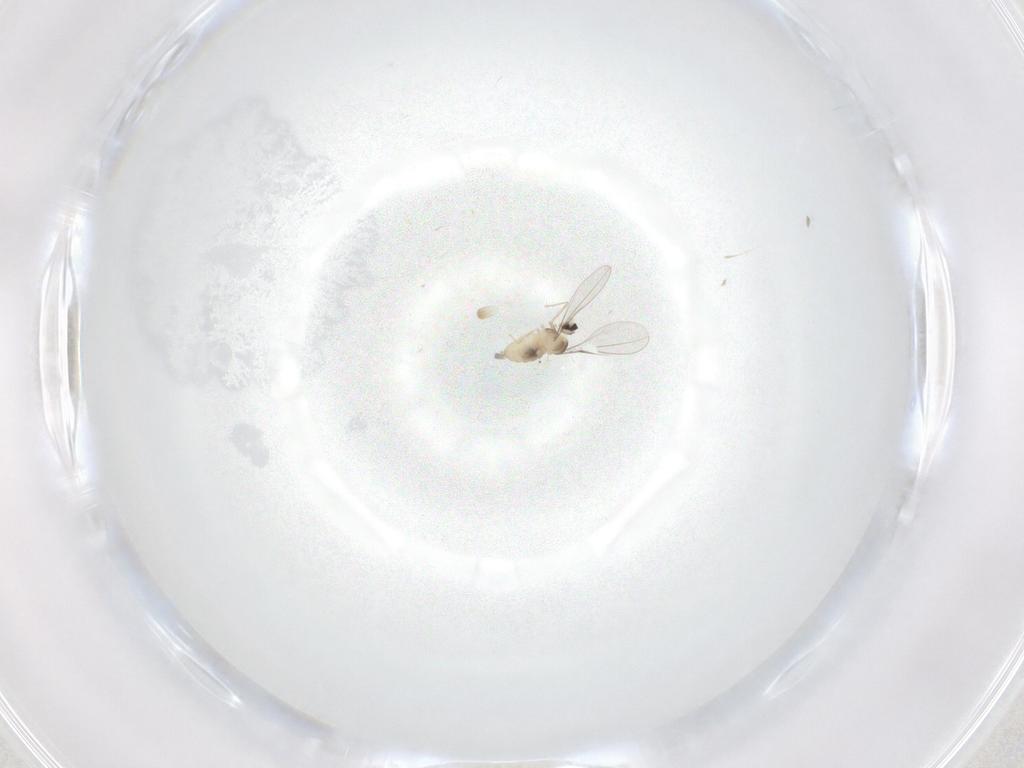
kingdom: Animalia
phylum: Arthropoda
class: Insecta
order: Diptera
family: Cecidomyiidae
